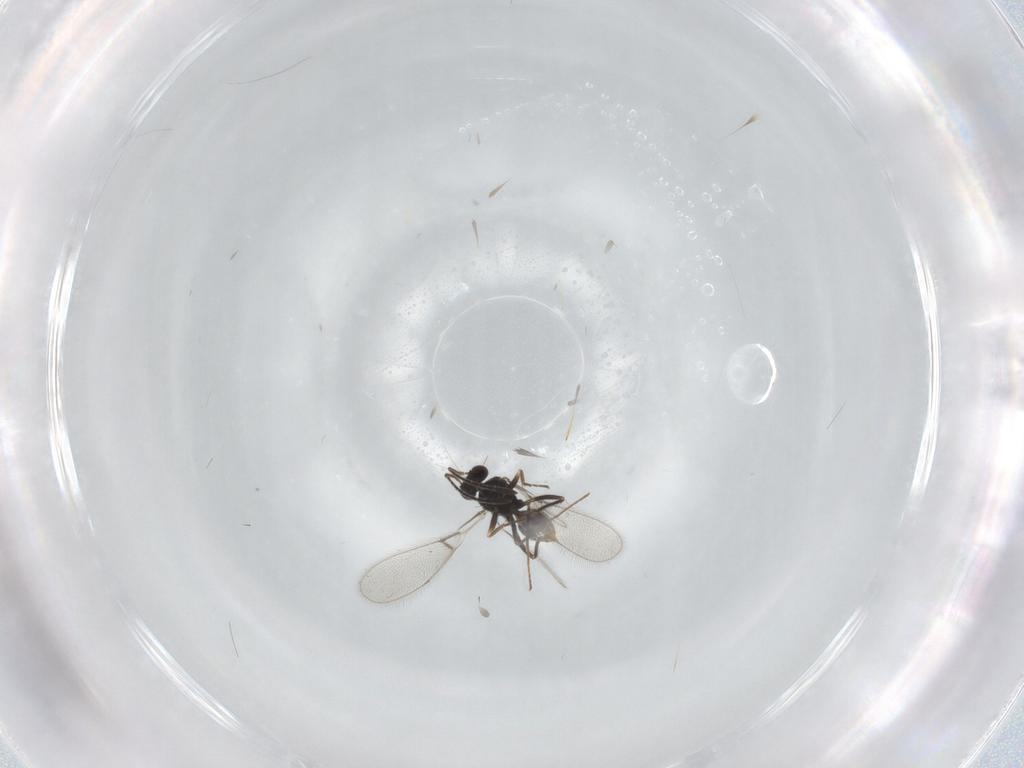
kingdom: Animalia
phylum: Arthropoda
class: Insecta
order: Hymenoptera
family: Mymaridae
